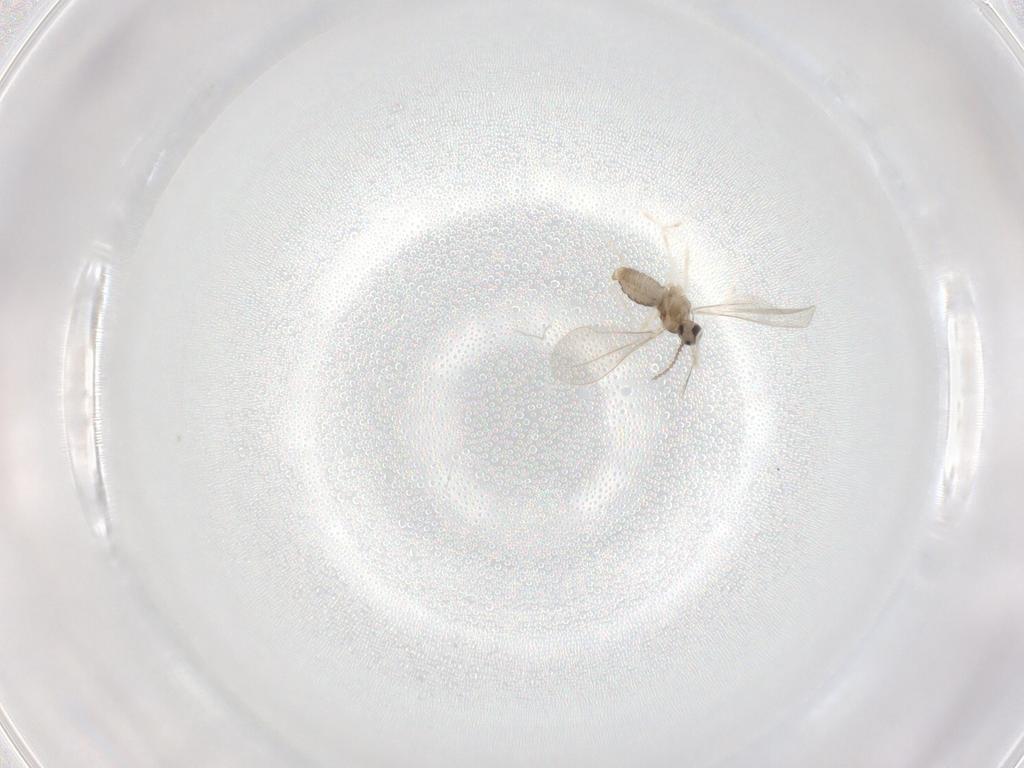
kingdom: Animalia
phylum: Arthropoda
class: Insecta
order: Diptera
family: Cecidomyiidae
